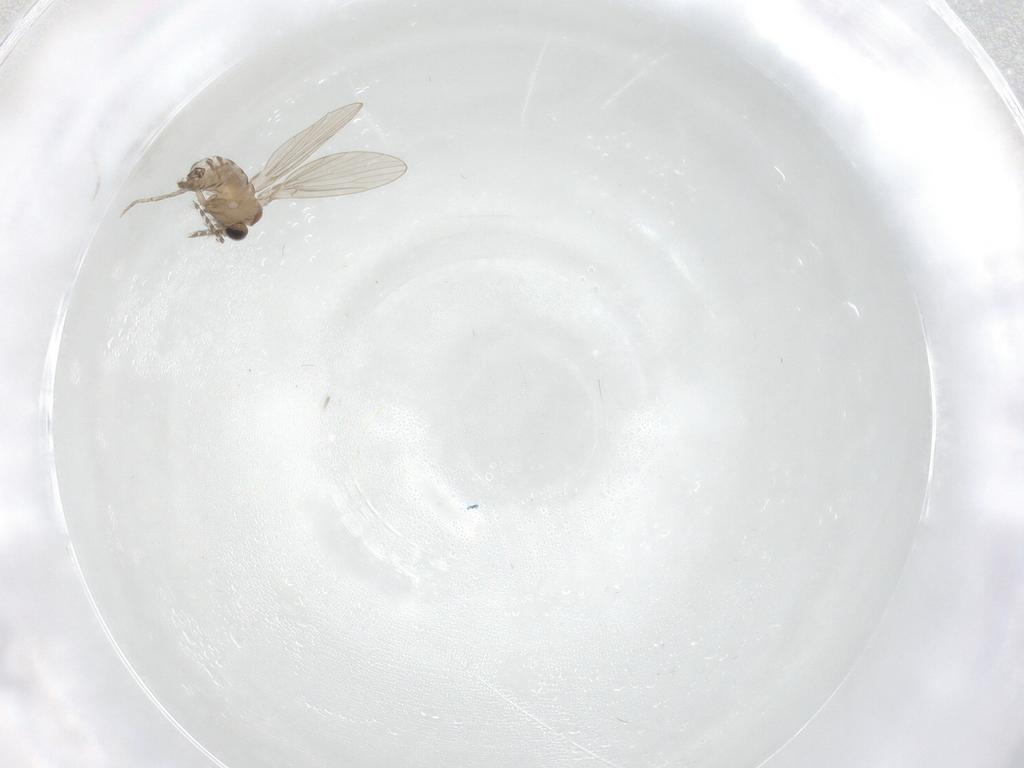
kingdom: Animalia
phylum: Arthropoda
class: Insecta
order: Diptera
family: Psychodidae
